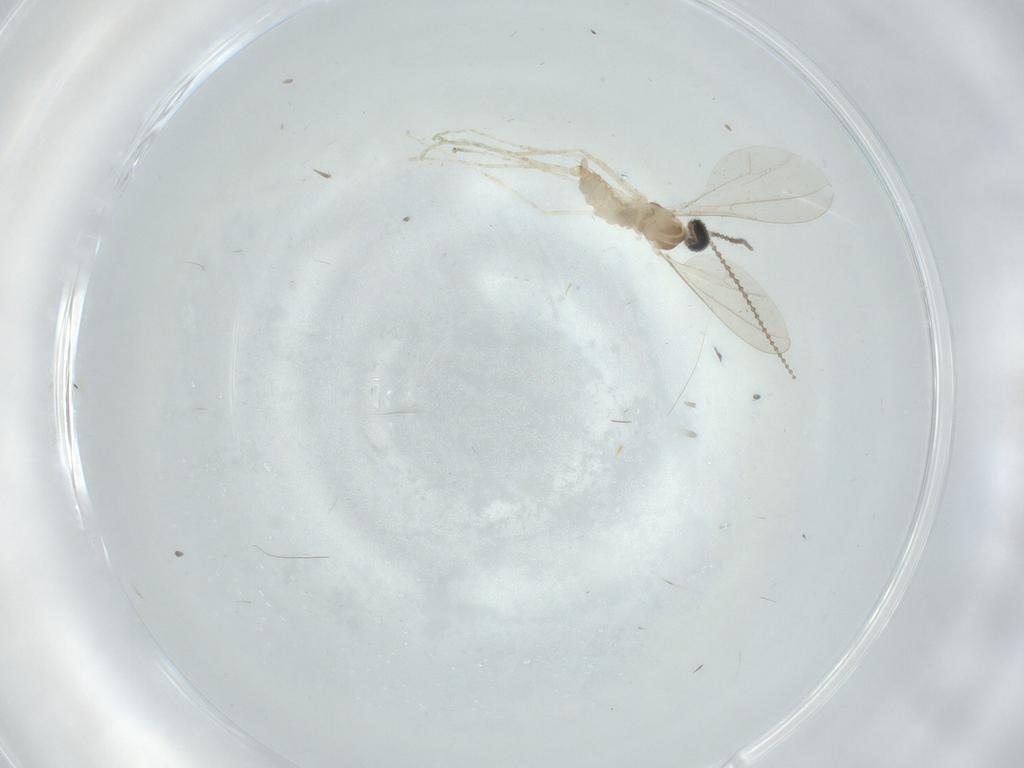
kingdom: Animalia
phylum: Arthropoda
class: Insecta
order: Diptera
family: Cecidomyiidae
